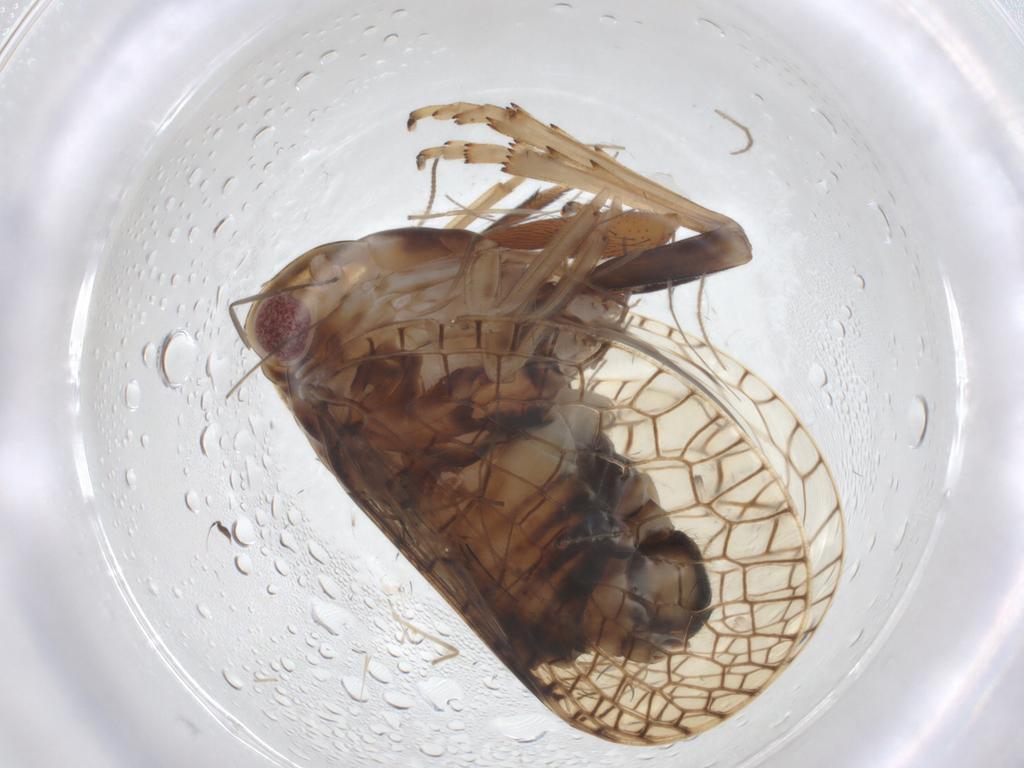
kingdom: Animalia
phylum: Arthropoda
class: Insecta
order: Hemiptera
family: Tropiduchidae
